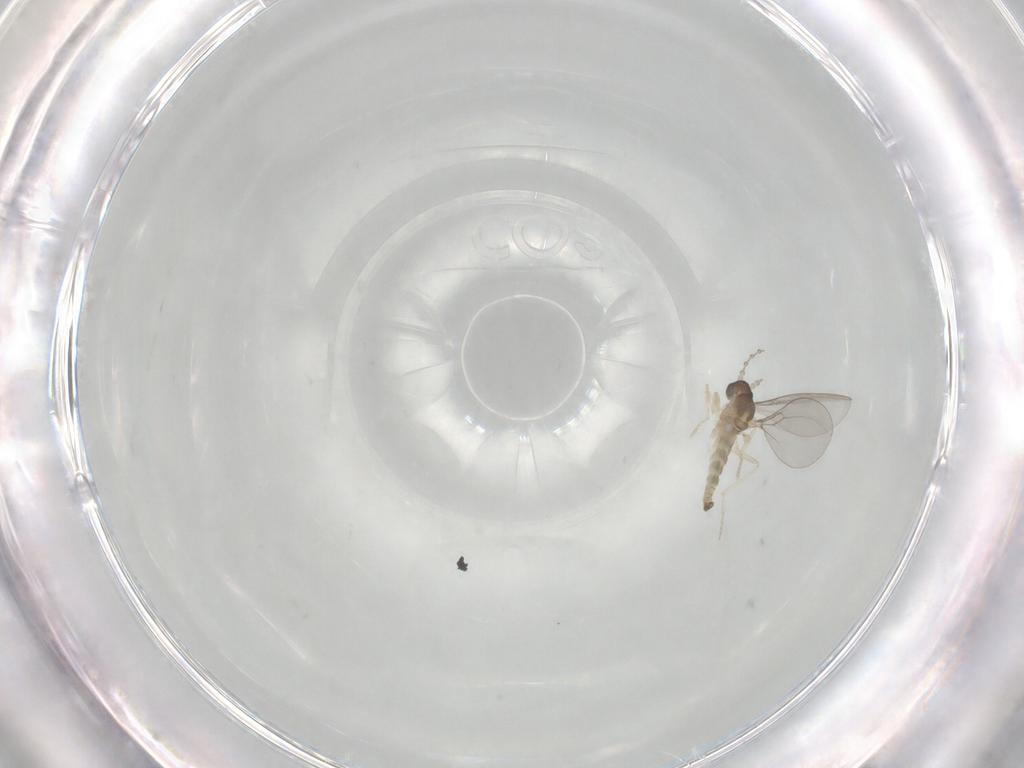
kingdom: Animalia
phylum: Arthropoda
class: Insecta
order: Diptera
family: Cecidomyiidae
